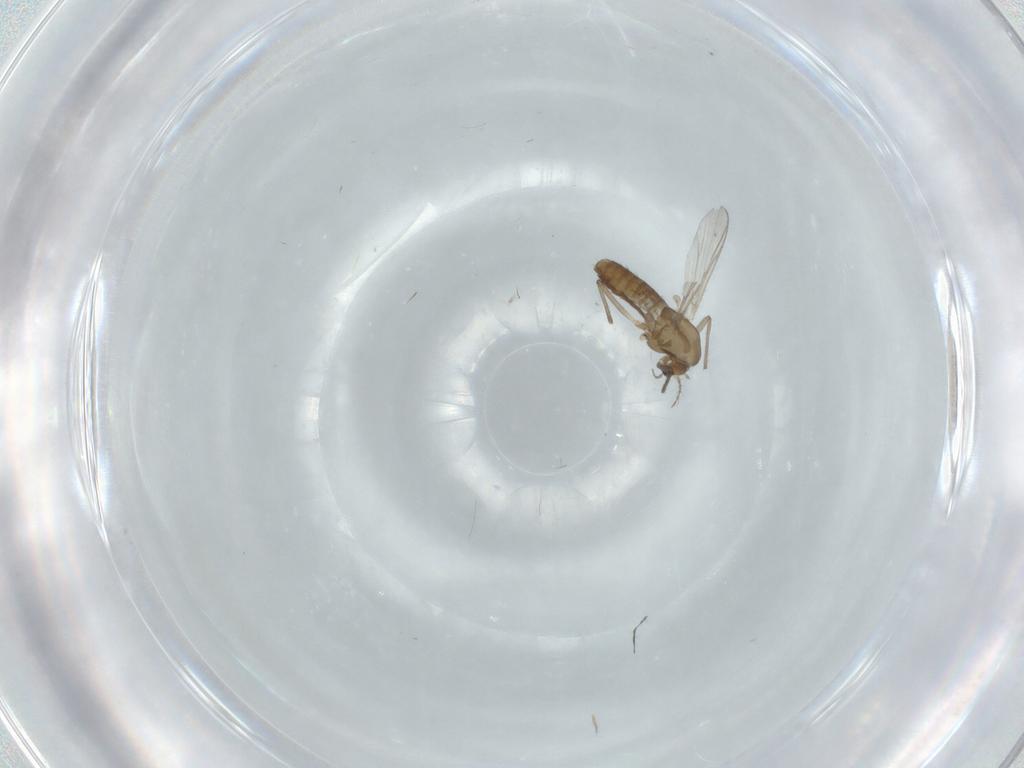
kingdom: Animalia
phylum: Arthropoda
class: Insecta
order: Diptera
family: Chironomidae
